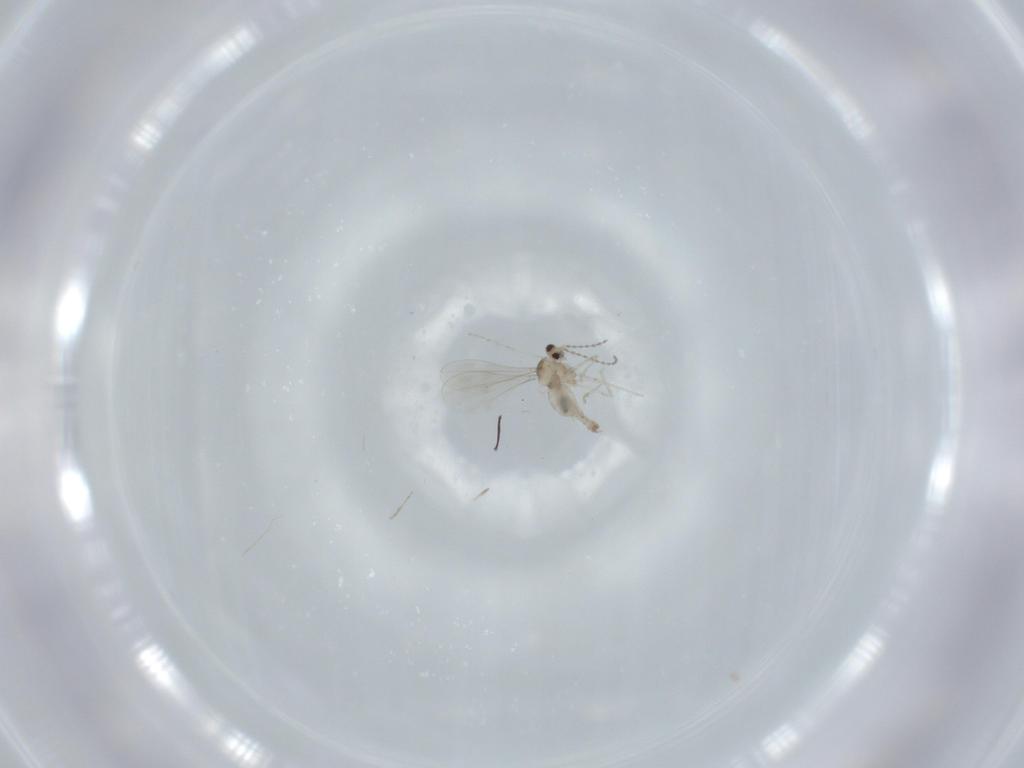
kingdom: Animalia
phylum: Arthropoda
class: Insecta
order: Diptera
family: Cecidomyiidae
